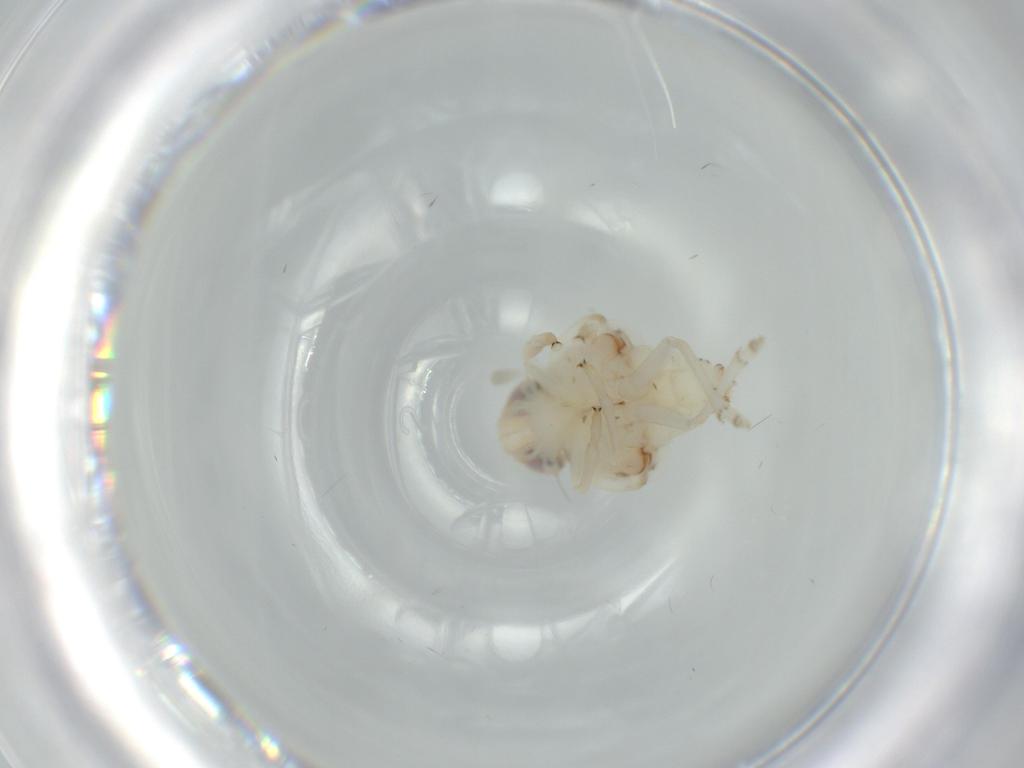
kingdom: Animalia
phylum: Arthropoda
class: Insecta
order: Hemiptera
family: Nogodinidae
